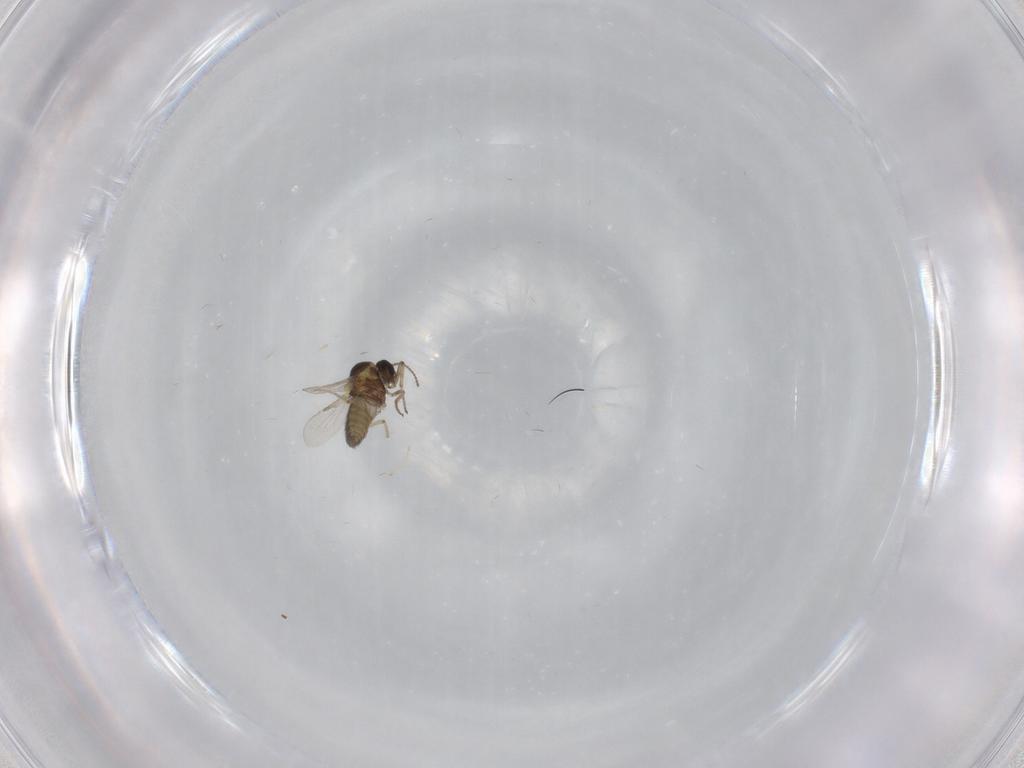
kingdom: Animalia
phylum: Arthropoda
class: Insecta
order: Diptera
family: Ceratopogonidae
